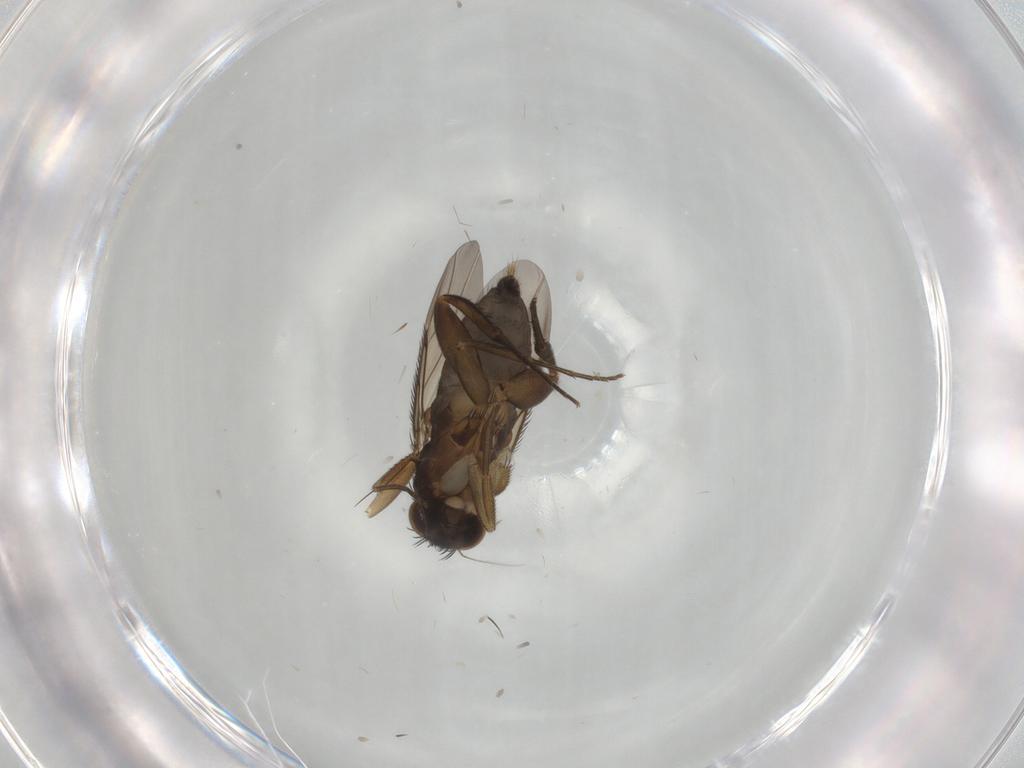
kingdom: Animalia
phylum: Arthropoda
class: Insecta
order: Diptera
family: Phoridae
